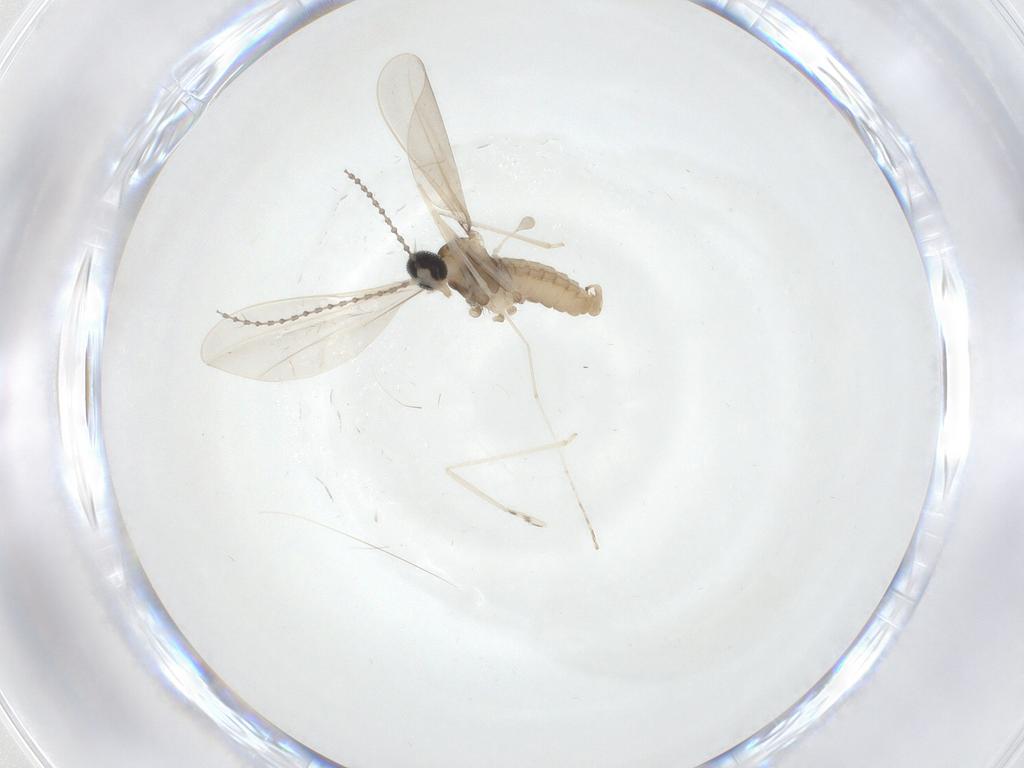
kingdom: Animalia
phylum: Arthropoda
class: Insecta
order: Diptera
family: Cecidomyiidae
